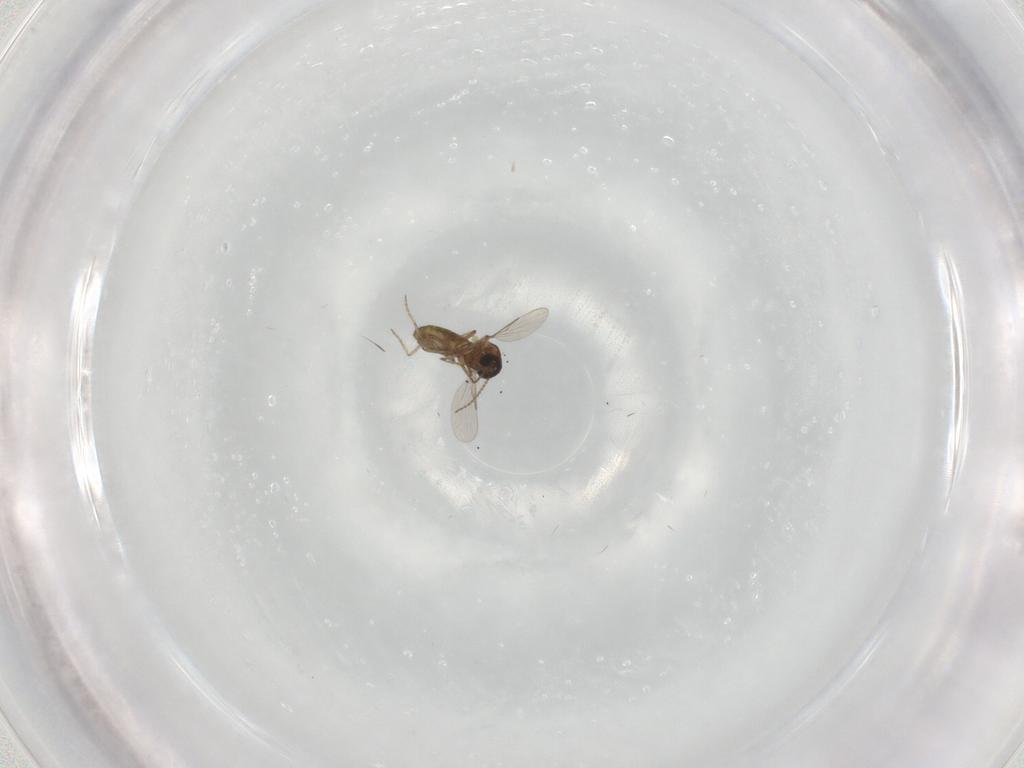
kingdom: Animalia
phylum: Arthropoda
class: Insecta
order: Diptera
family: Ceratopogonidae
